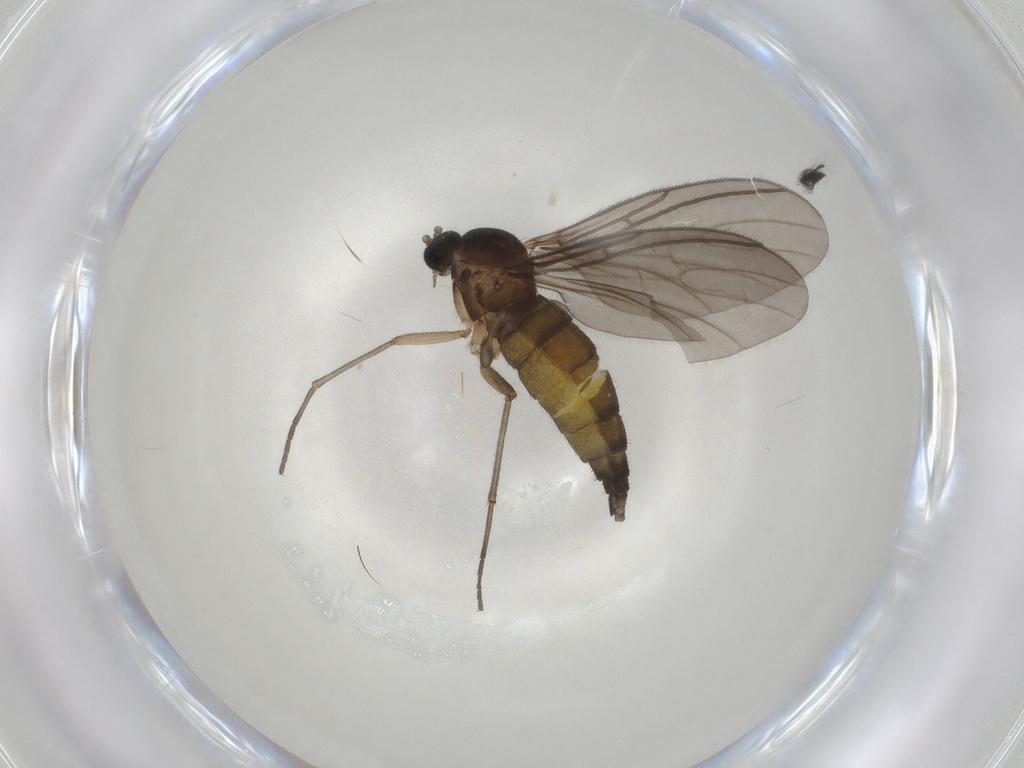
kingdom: Animalia
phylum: Arthropoda
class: Insecta
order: Diptera
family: Sciaridae
